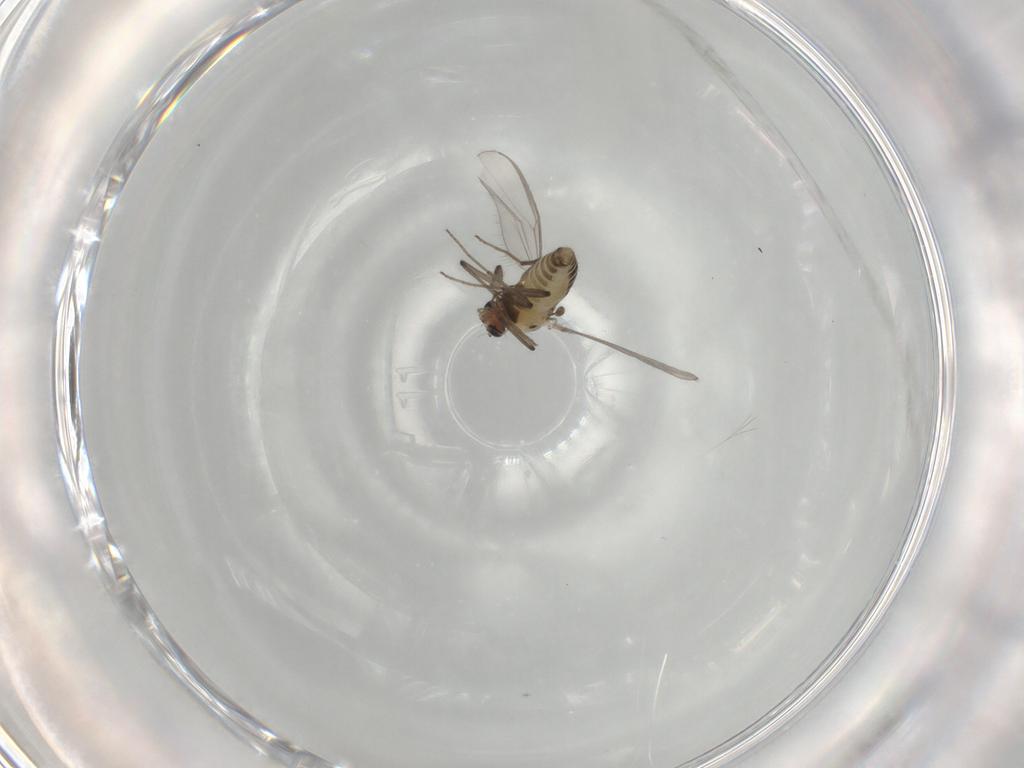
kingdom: Animalia
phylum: Arthropoda
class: Insecta
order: Diptera
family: Chironomidae
